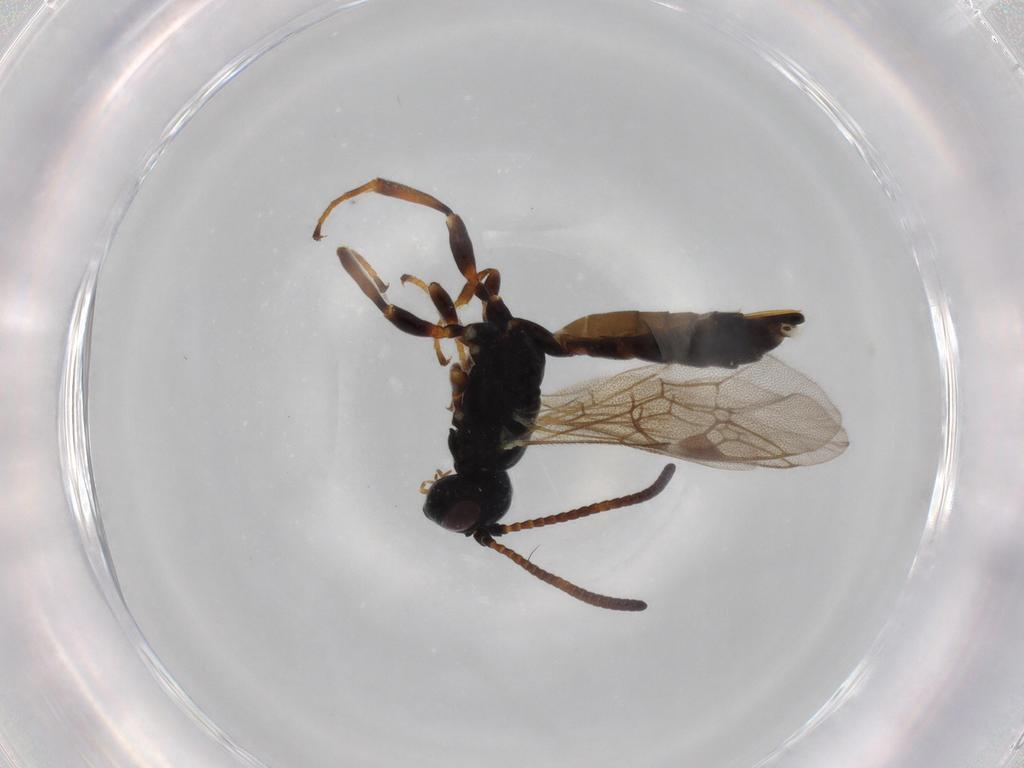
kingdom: Animalia
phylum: Arthropoda
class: Insecta
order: Hymenoptera
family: Ichneumonidae
